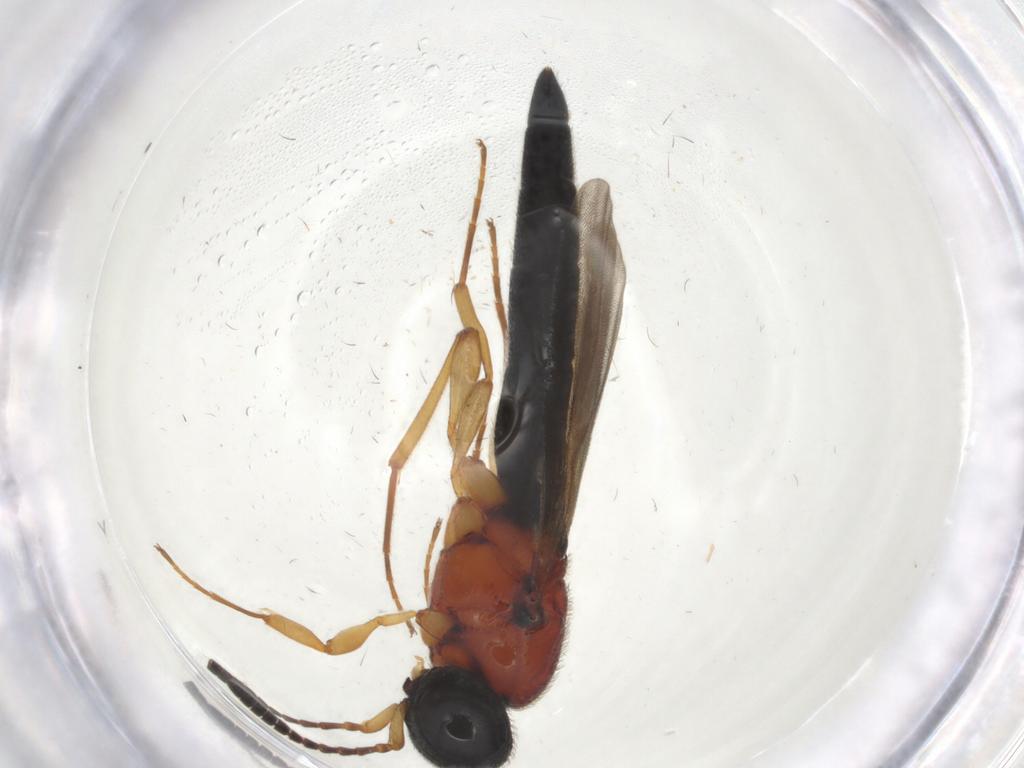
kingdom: Animalia
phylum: Arthropoda
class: Insecta
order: Hymenoptera
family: Scelionidae
